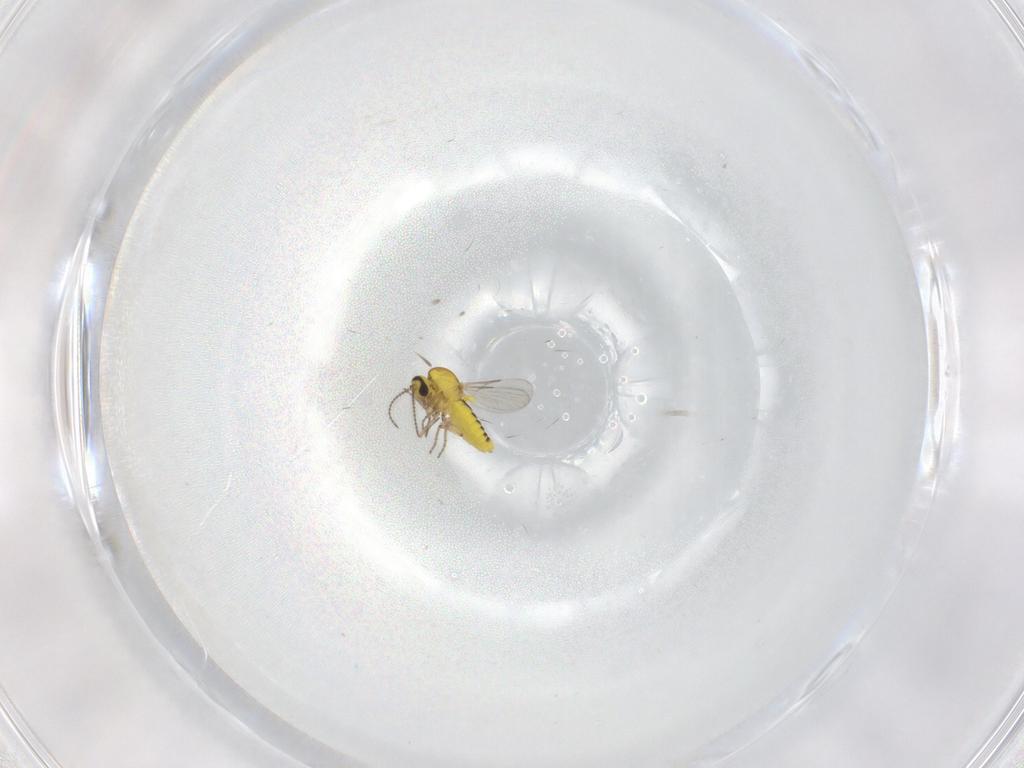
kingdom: Animalia
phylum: Arthropoda
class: Insecta
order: Diptera
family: Ceratopogonidae
